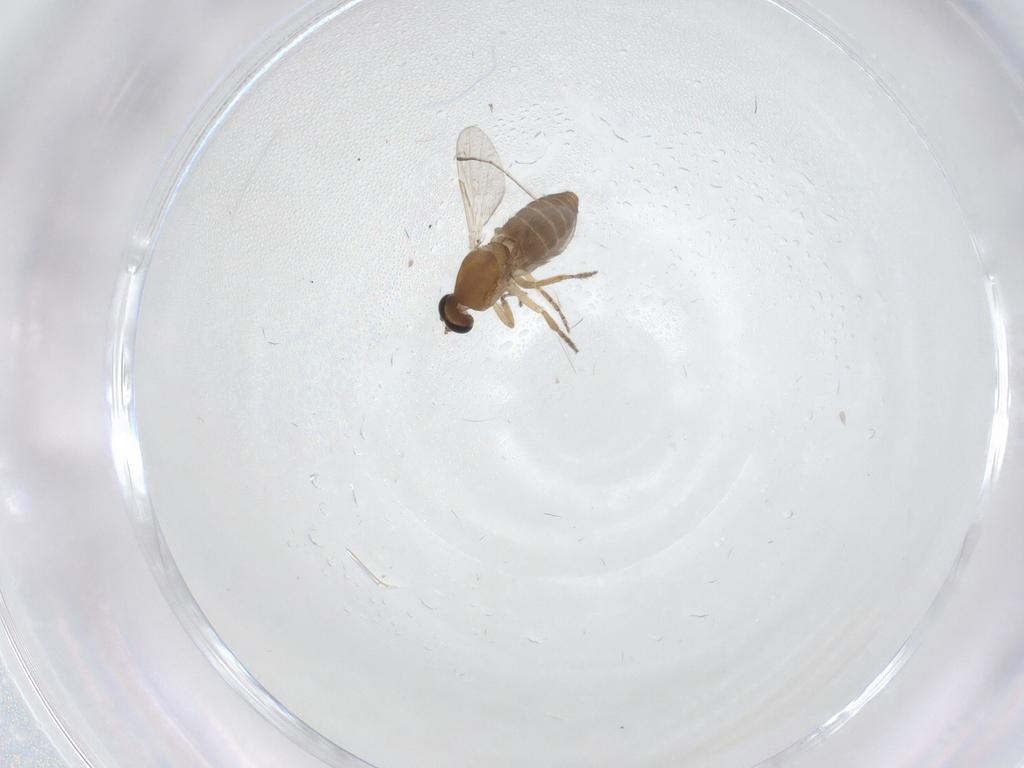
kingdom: Animalia
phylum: Arthropoda
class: Insecta
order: Diptera
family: Ceratopogonidae
